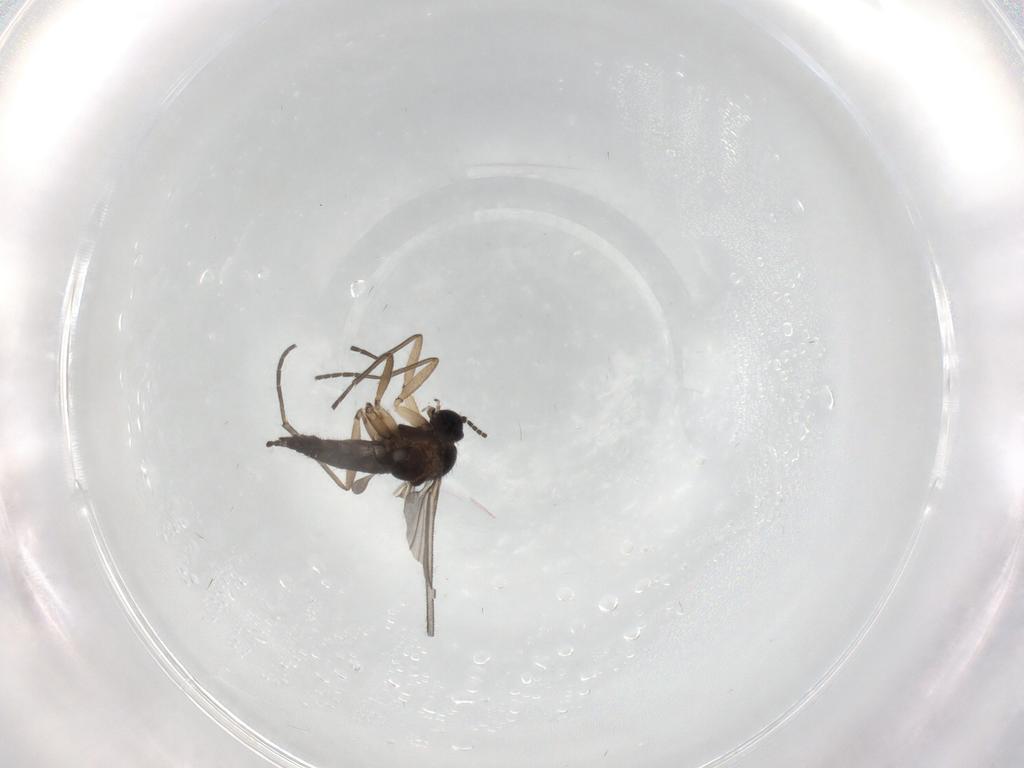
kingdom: Animalia
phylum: Arthropoda
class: Insecta
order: Diptera
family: Sciaridae
